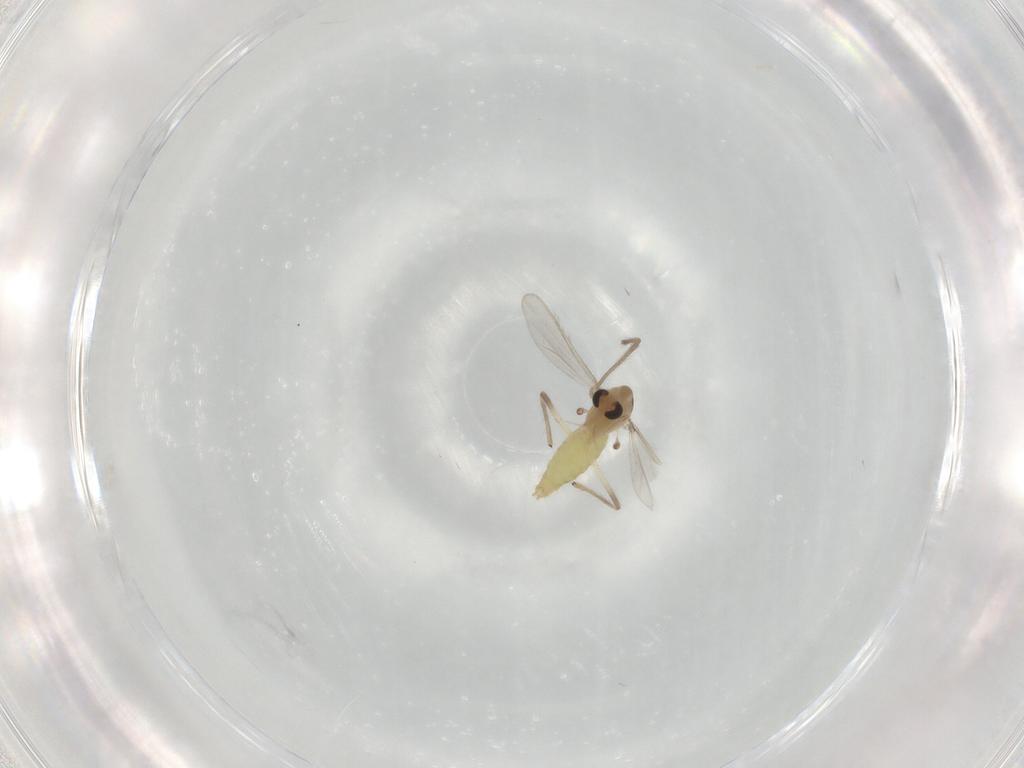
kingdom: Animalia
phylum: Arthropoda
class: Insecta
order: Diptera
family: Chironomidae
